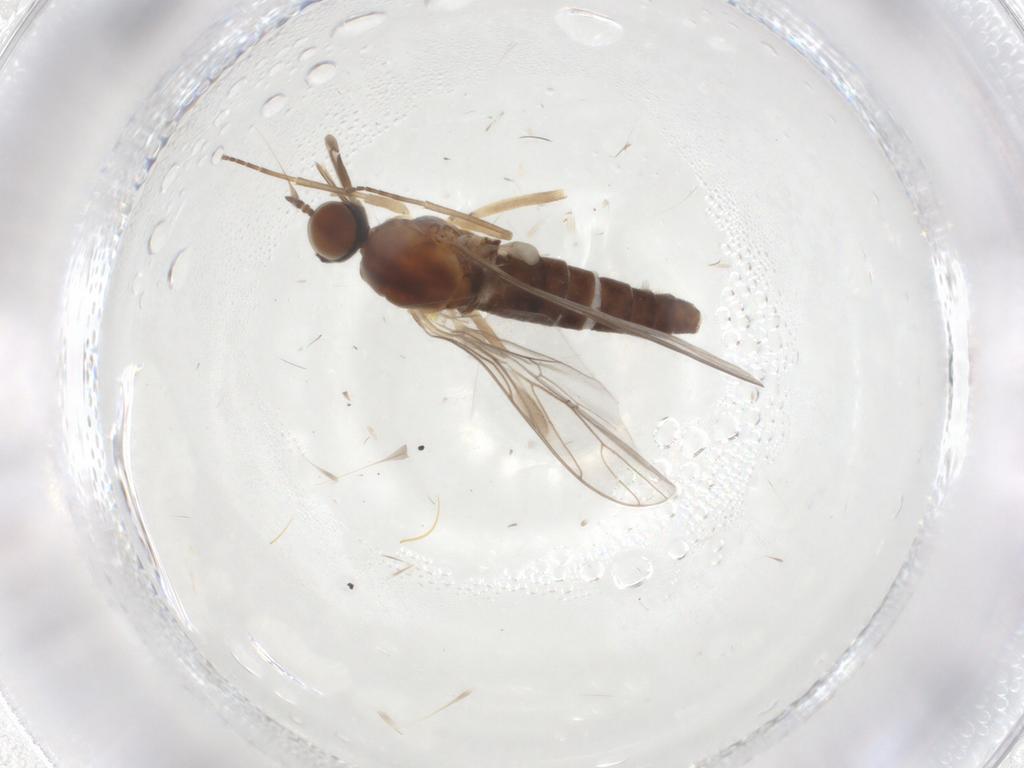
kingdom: Animalia
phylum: Arthropoda
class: Insecta
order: Diptera
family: Scenopinidae
